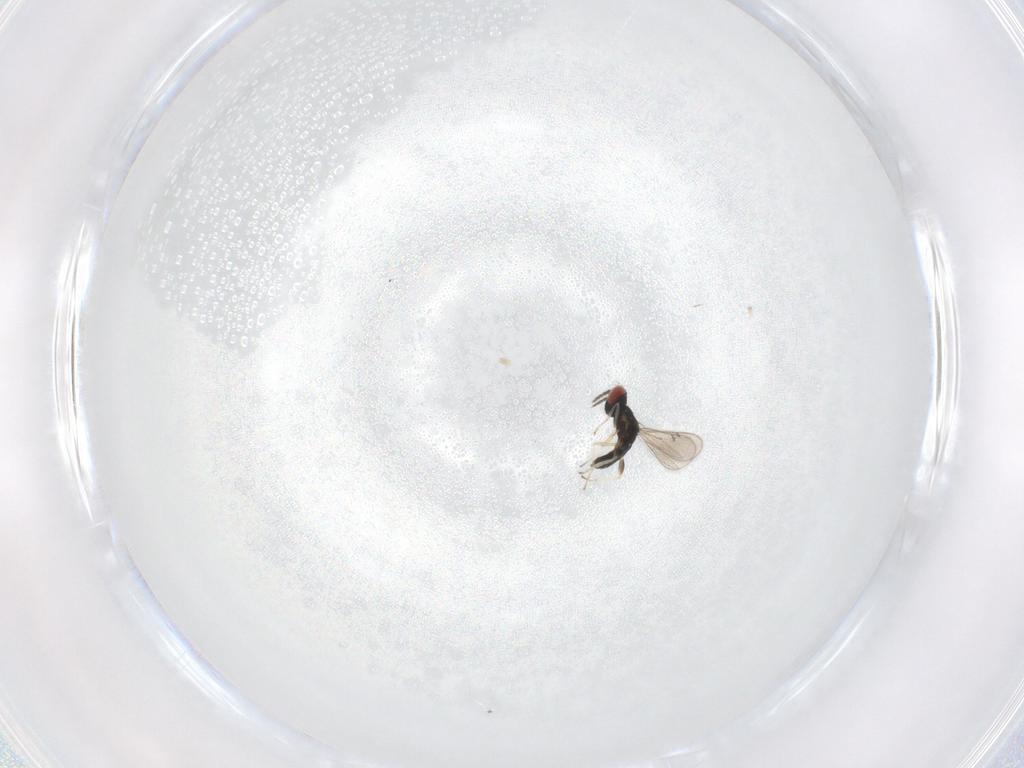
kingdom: Animalia
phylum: Arthropoda
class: Insecta
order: Hymenoptera
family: Eulophidae
